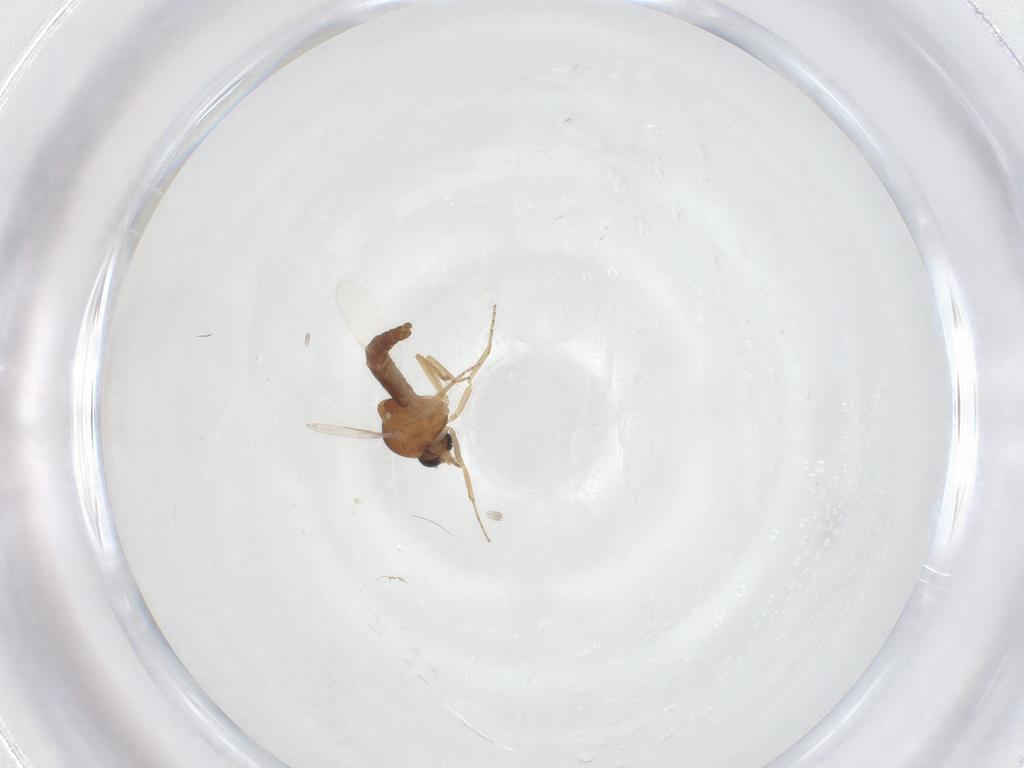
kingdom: Animalia
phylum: Arthropoda
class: Insecta
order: Diptera
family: Ceratopogonidae
